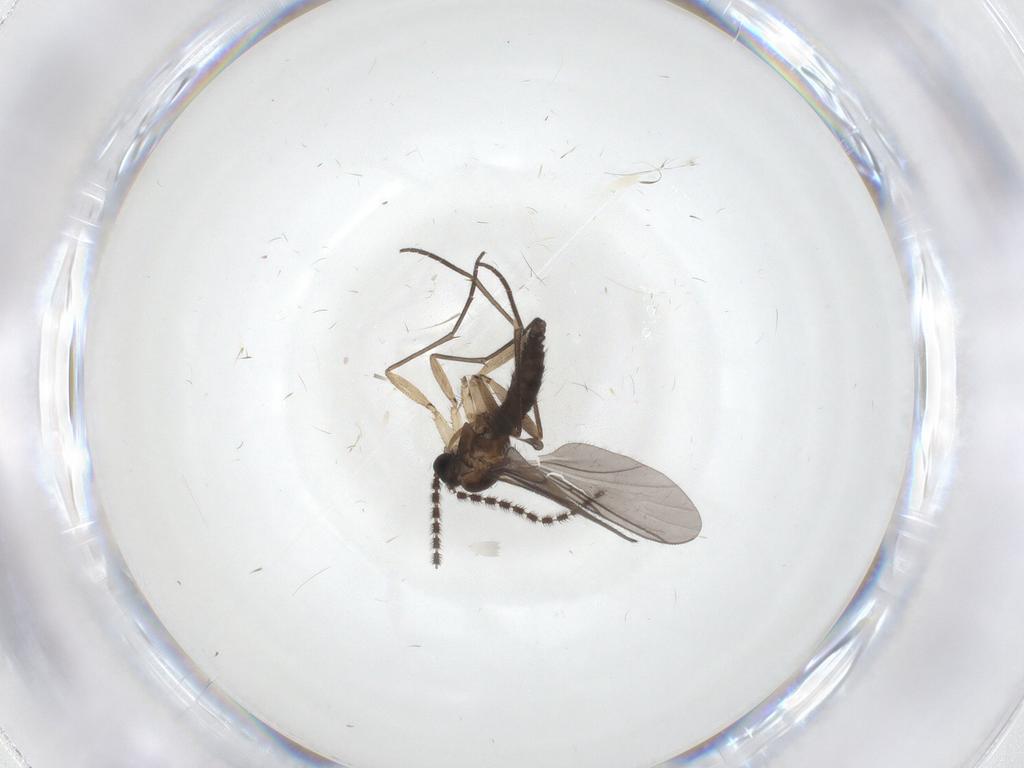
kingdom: Animalia
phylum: Arthropoda
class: Insecta
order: Diptera
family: Sciaridae
